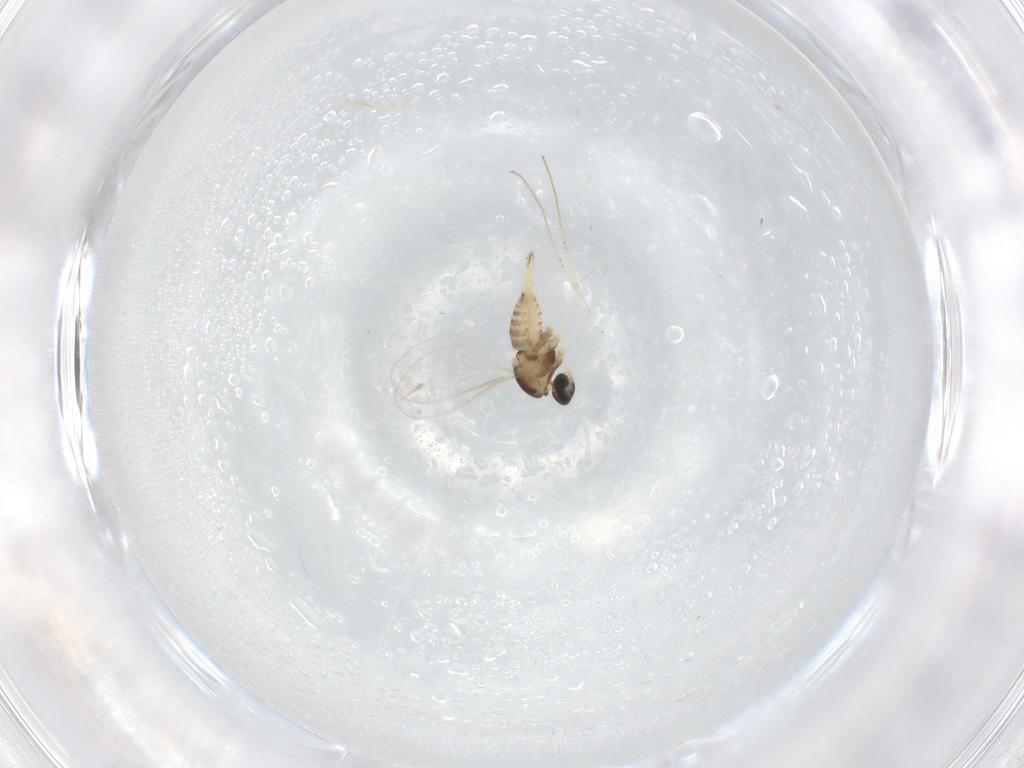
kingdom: Animalia
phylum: Arthropoda
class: Insecta
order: Diptera
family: Cecidomyiidae
